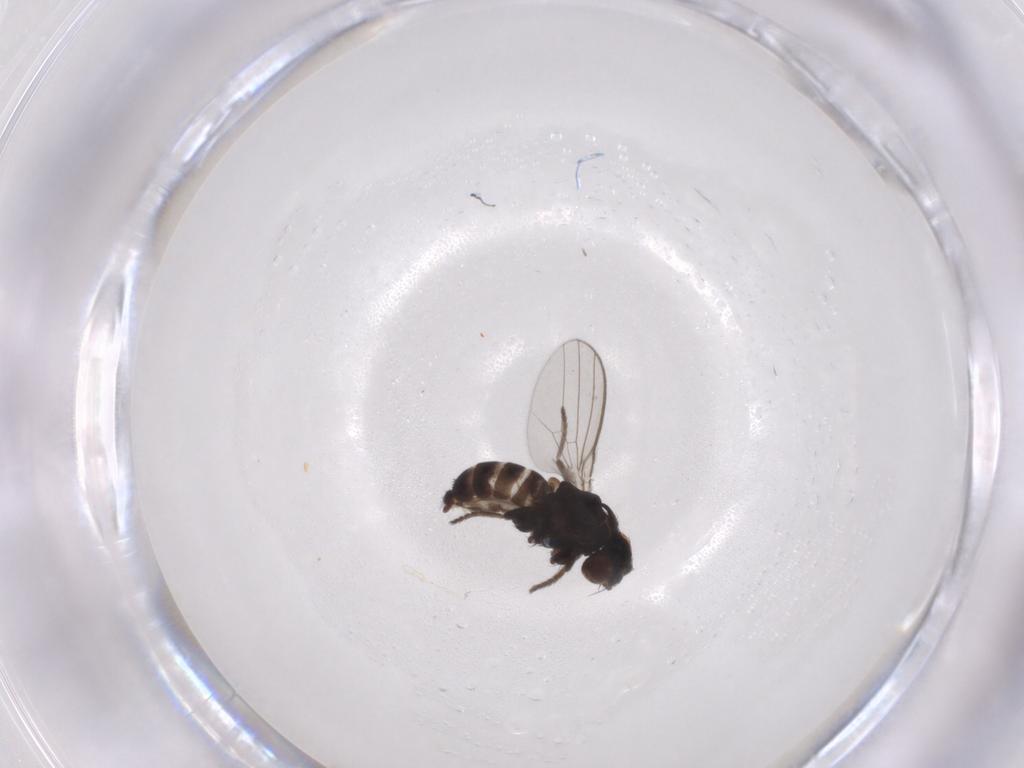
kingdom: Animalia
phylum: Arthropoda
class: Insecta
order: Diptera
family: Milichiidae
